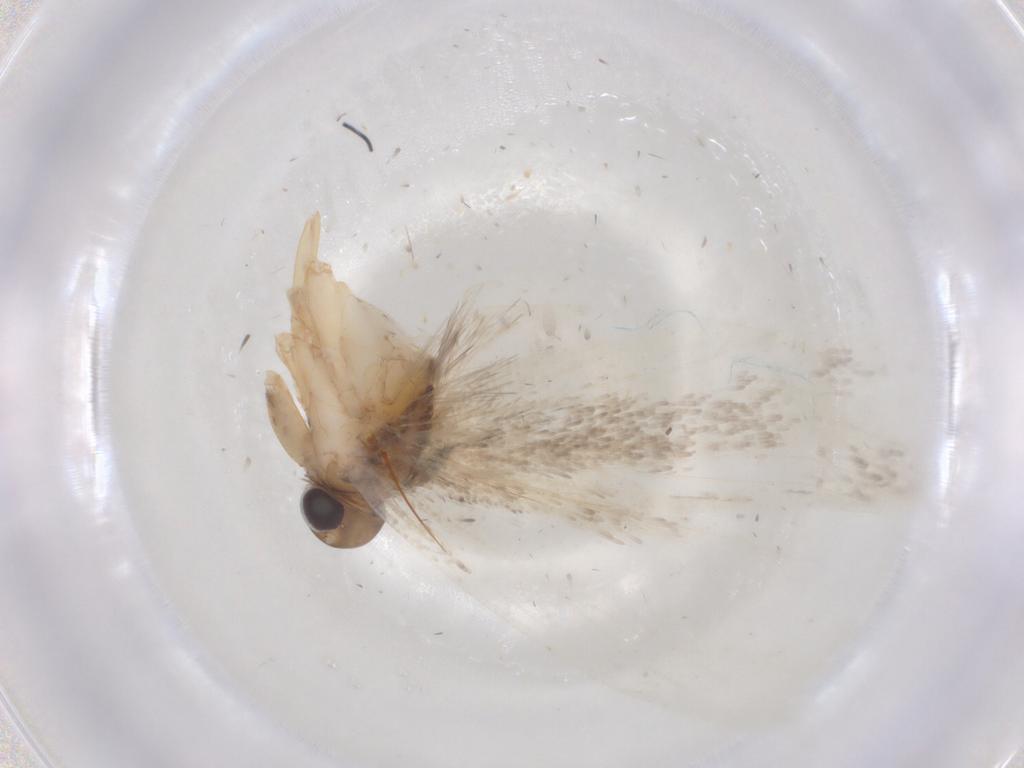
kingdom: Animalia
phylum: Arthropoda
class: Insecta
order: Lepidoptera
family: Gelechiidae
